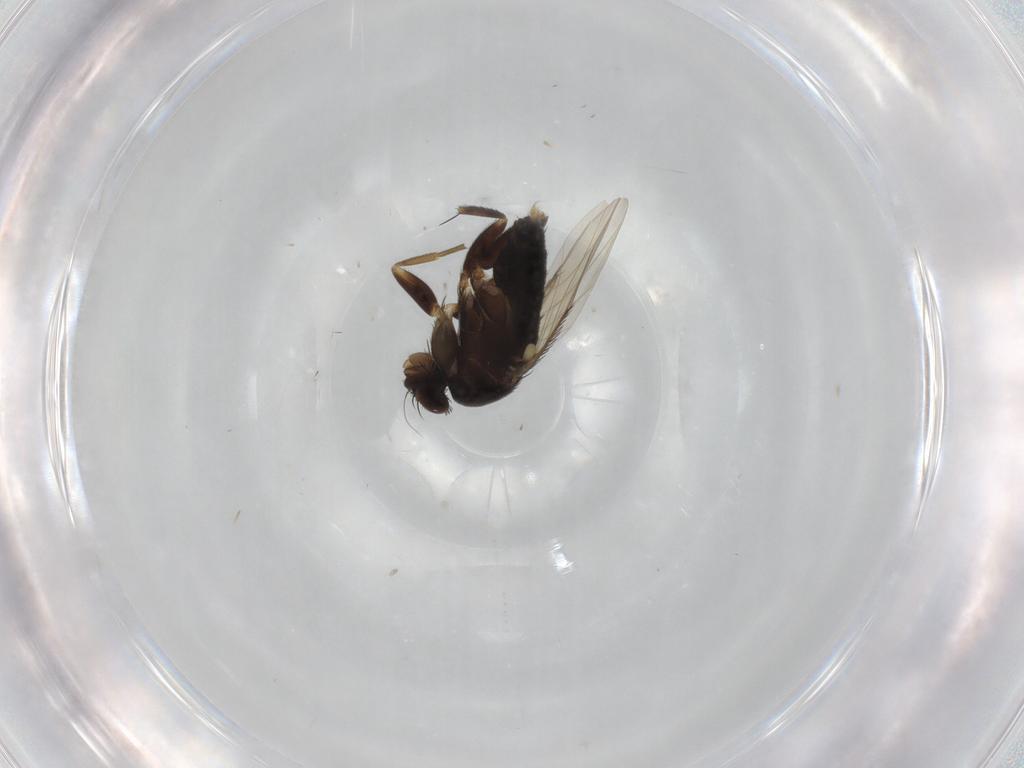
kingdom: Animalia
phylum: Arthropoda
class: Insecta
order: Diptera
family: Phoridae
